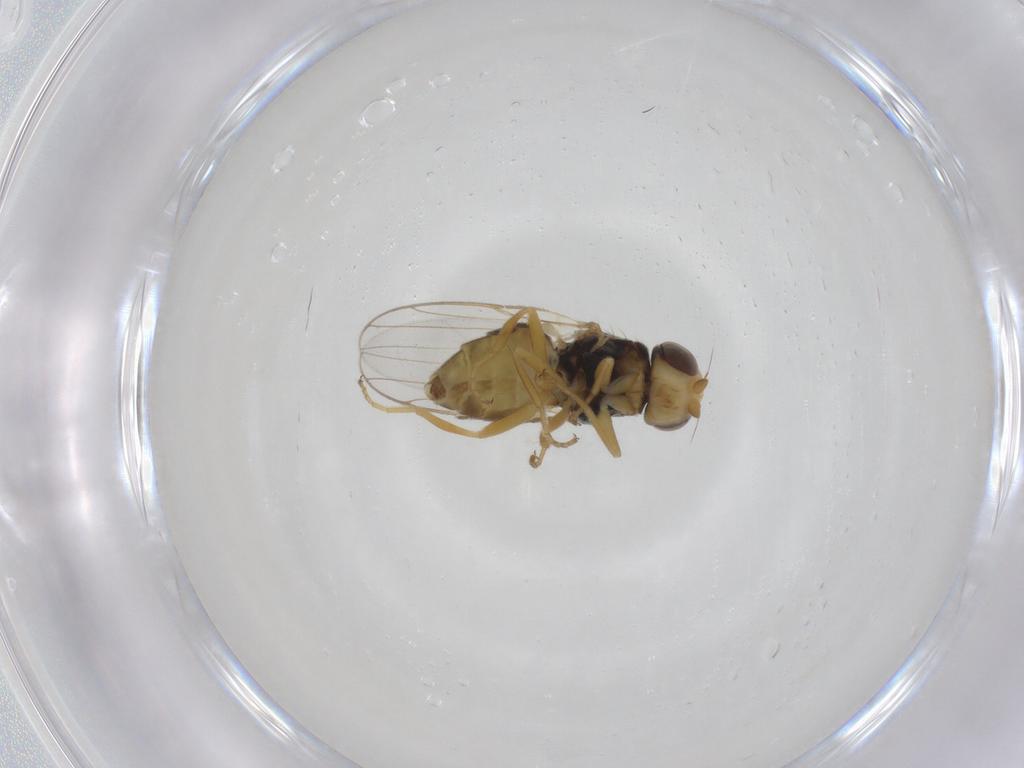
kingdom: Animalia
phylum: Arthropoda
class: Insecta
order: Diptera
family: Chloropidae
